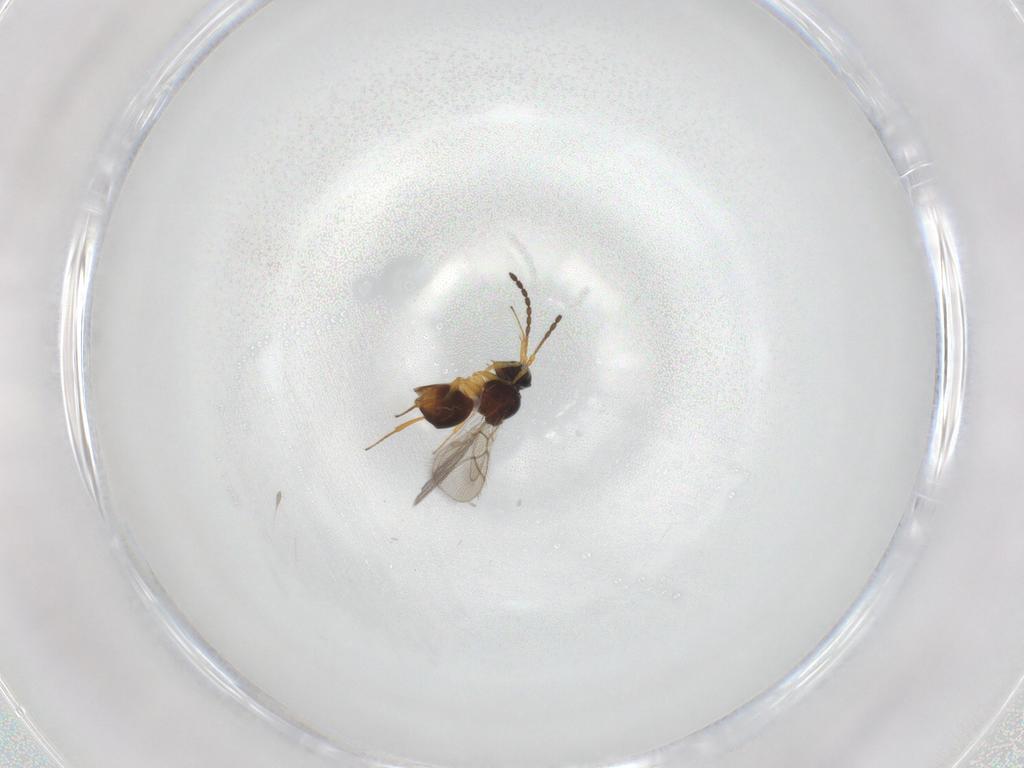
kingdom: Animalia
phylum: Arthropoda
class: Insecta
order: Hymenoptera
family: Figitidae
